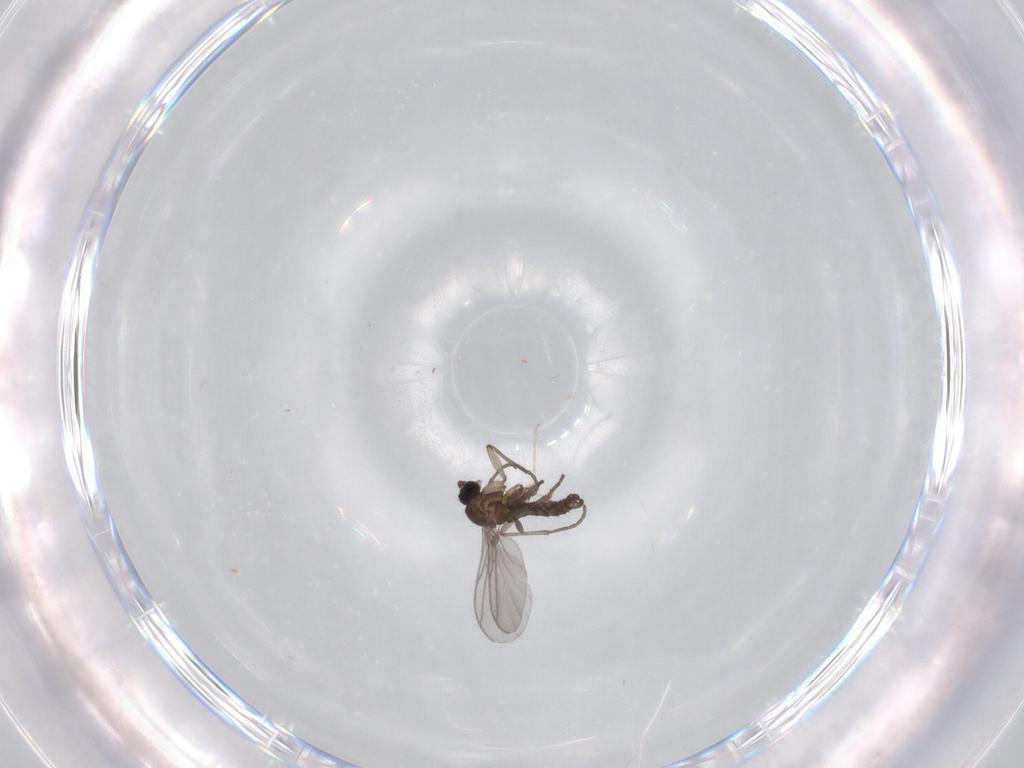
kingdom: Animalia
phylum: Arthropoda
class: Insecta
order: Diptera
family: Cecidomyiidae
